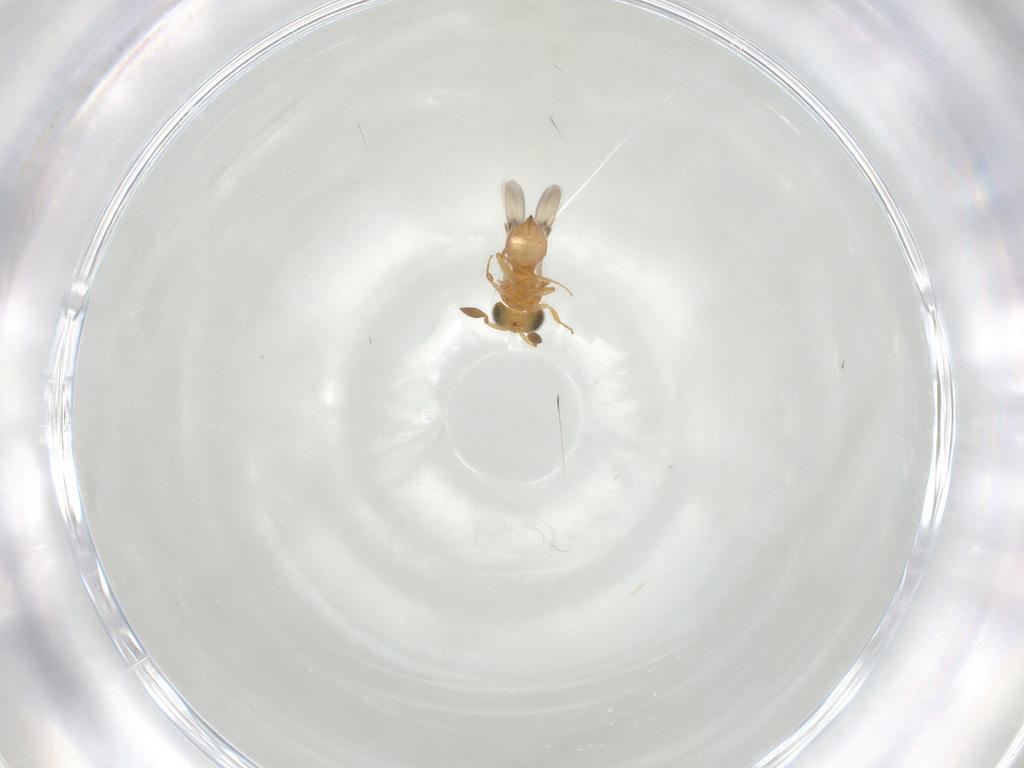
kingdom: Animalia
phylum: Arthropoda
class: Insecta
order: Hymenoptera
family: Scelionidae
